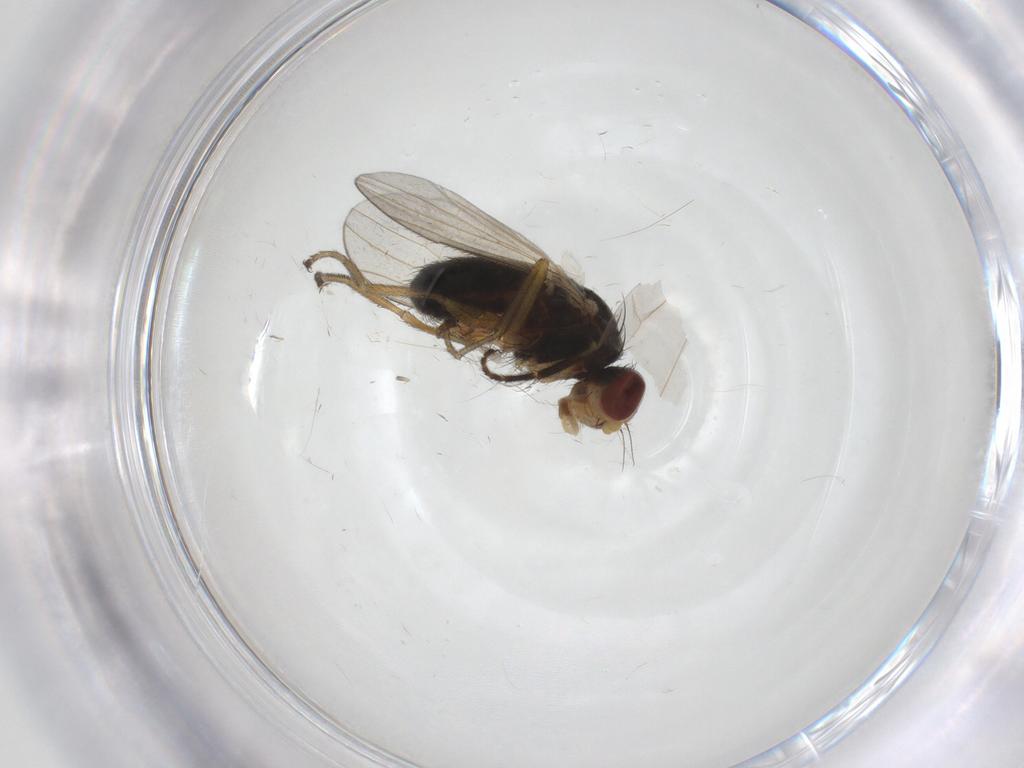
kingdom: Animalia
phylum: Arthropoda
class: Insecta
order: Diptera
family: Heleomyzidae
